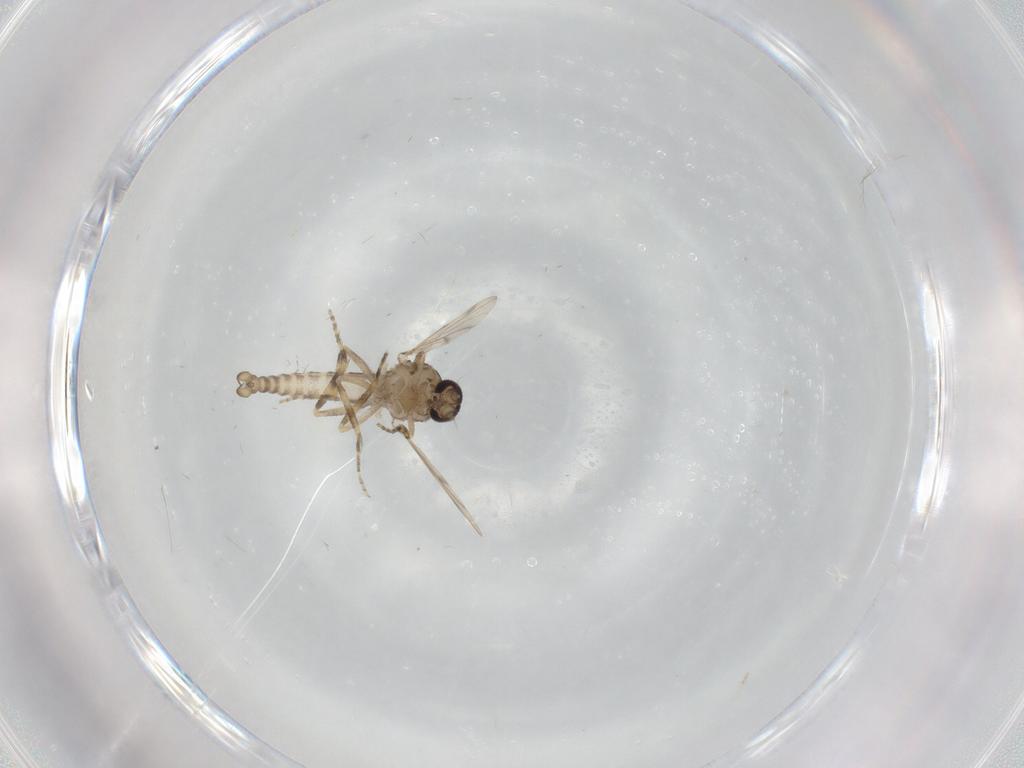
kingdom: Animalia
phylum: Arthropoda
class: Insecta
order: Diptera
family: Ceratopogonidae
